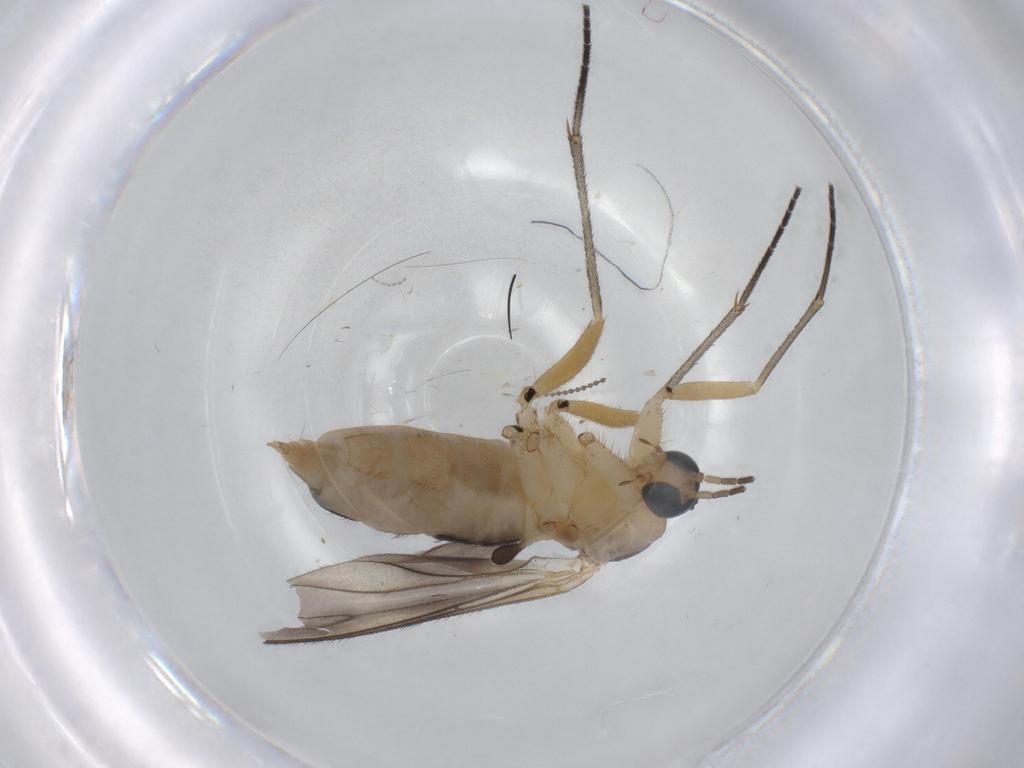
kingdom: Animalia
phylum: Arthropoda
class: Insecta
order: Diptera
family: Sciaridae
